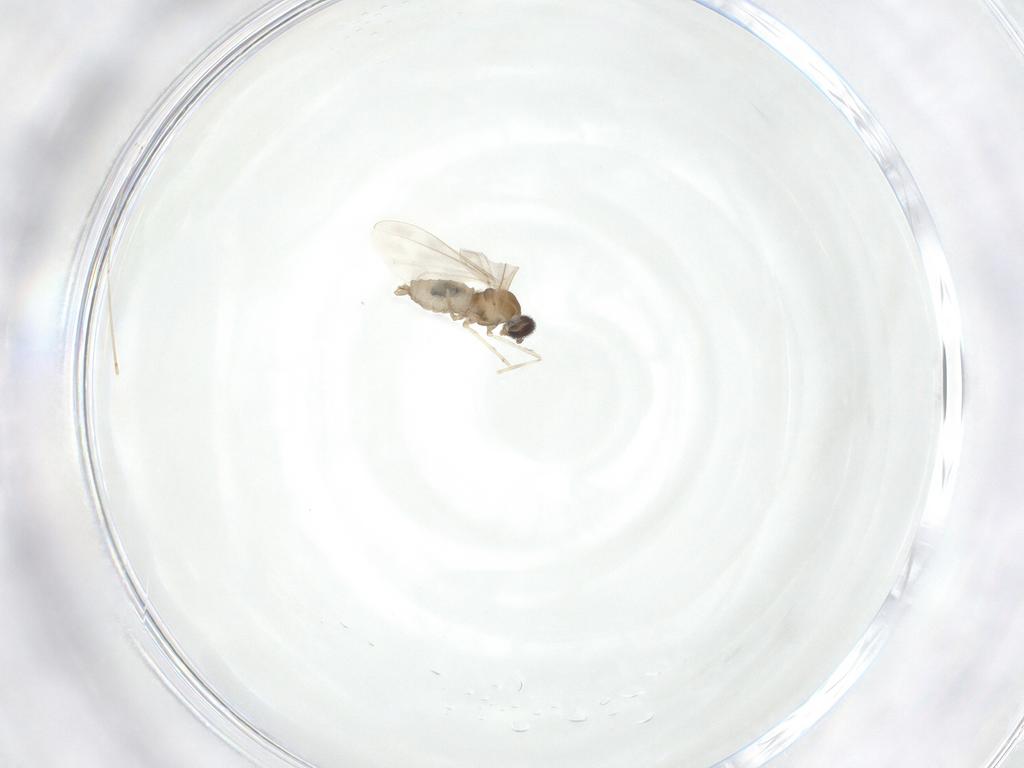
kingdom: Animalia
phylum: Arthropoda
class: Insecta
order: Diptera
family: Cecidomyiidae
